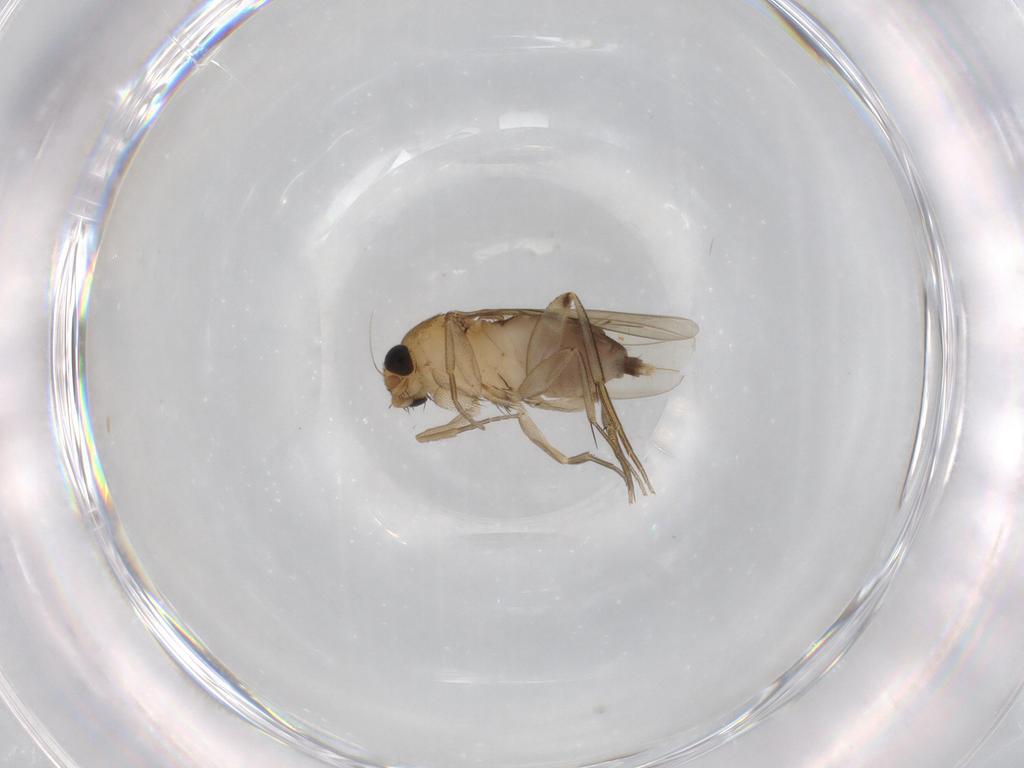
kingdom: Animalia
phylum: Arthropoda
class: Insecta
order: Diptera
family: Phoridae
